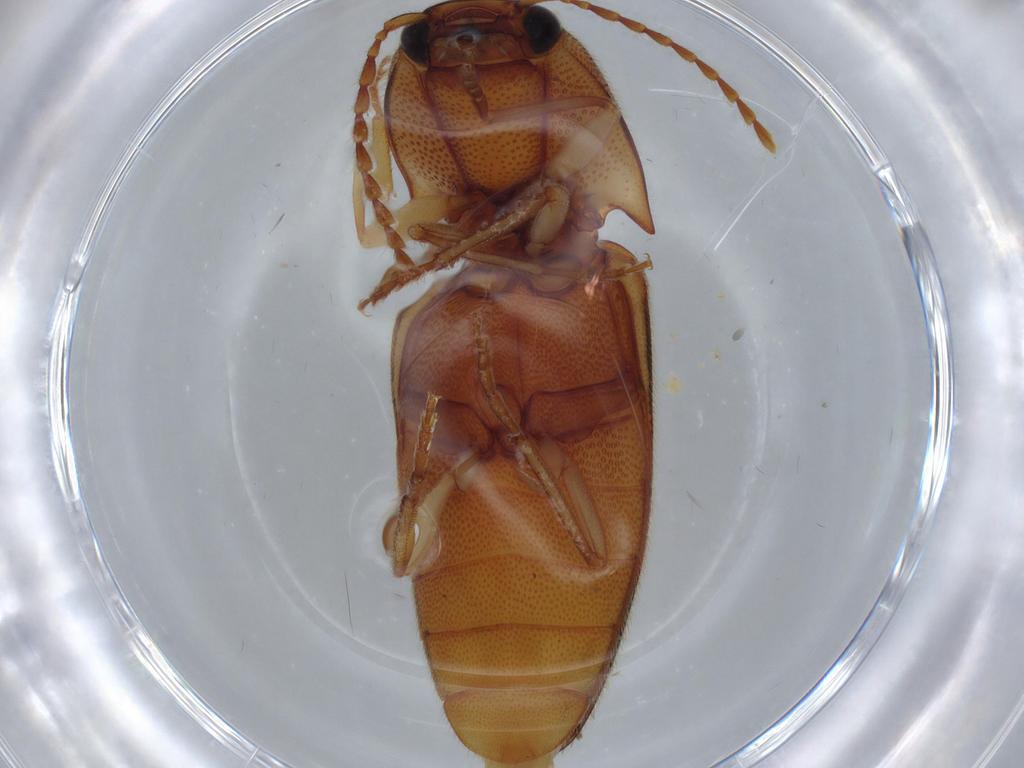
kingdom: Animalia
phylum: Arthropoda
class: Insecta
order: Coleoptera
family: Elateridae
